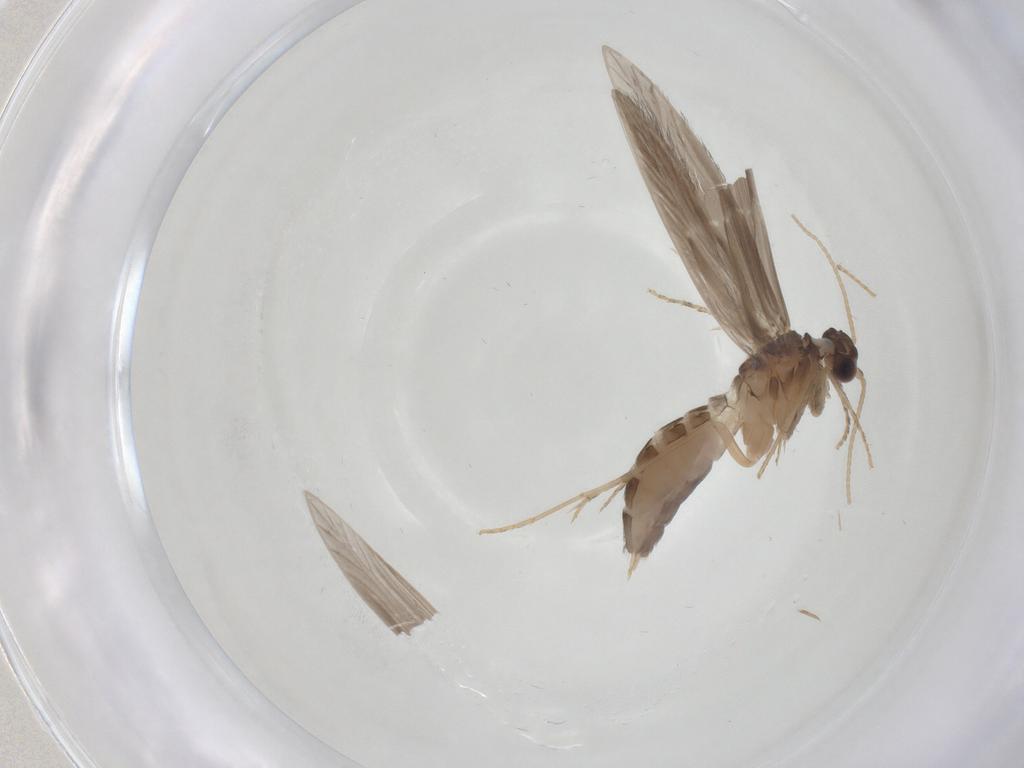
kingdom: Animalia
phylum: Arthropoda
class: Insecta
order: Trichoptera
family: Hydroptilidae
